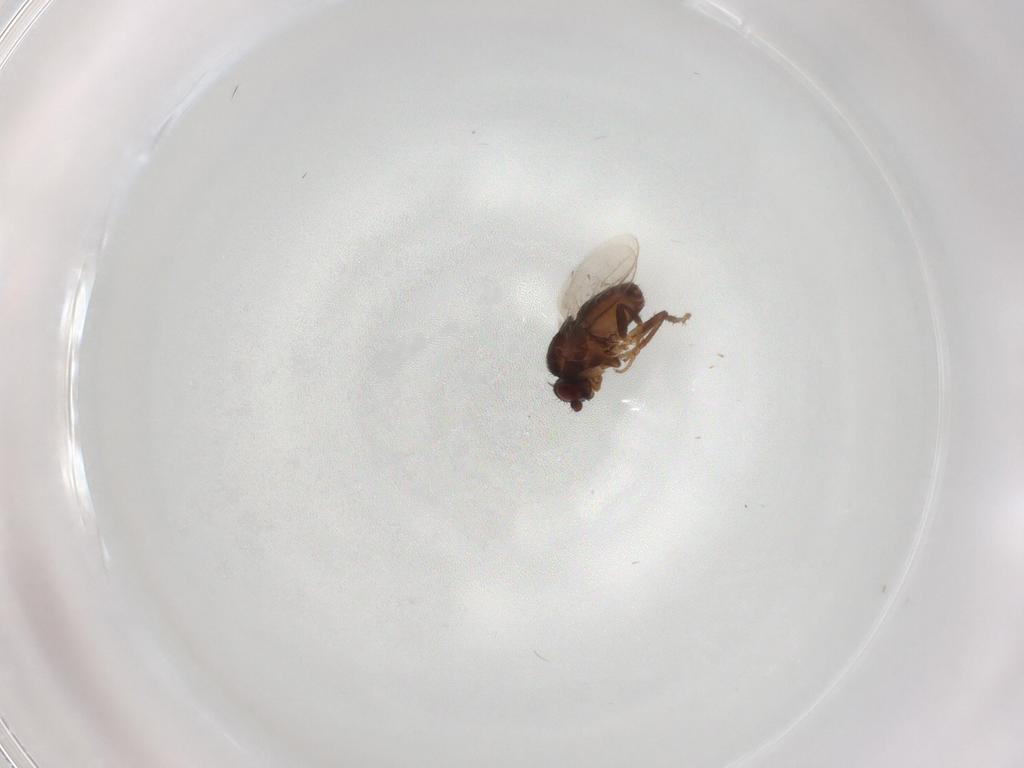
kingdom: Animalia
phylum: Arthropoda
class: Insecta
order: Diptera
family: Sphaeroceridae
